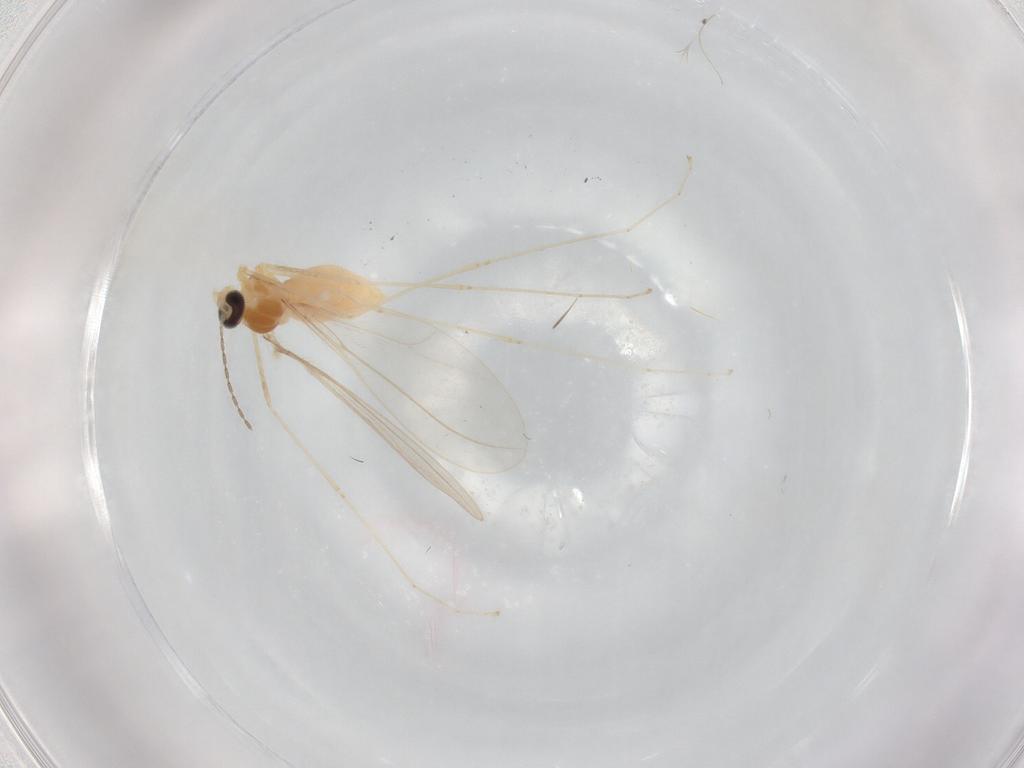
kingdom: Animalia
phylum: Arthropoda
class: Insecta
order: Diptera
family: Cecidomyiidae
